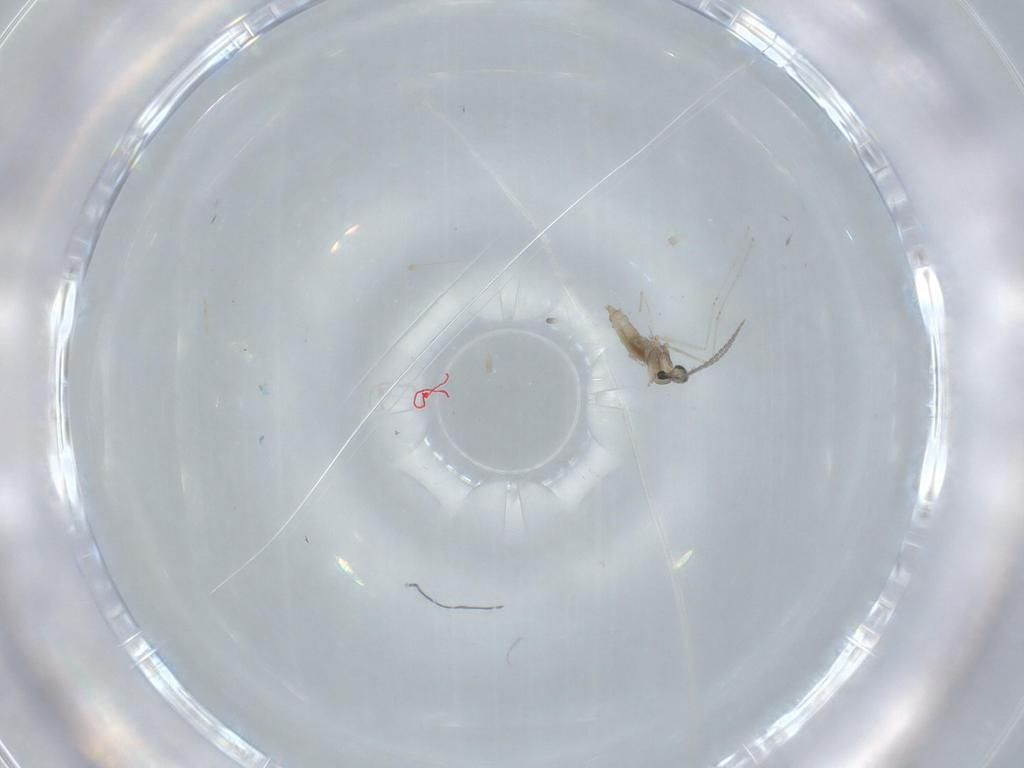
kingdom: Animalia
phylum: Arthropoda
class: Insecta
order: Diptera
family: Cecidomyiidae
